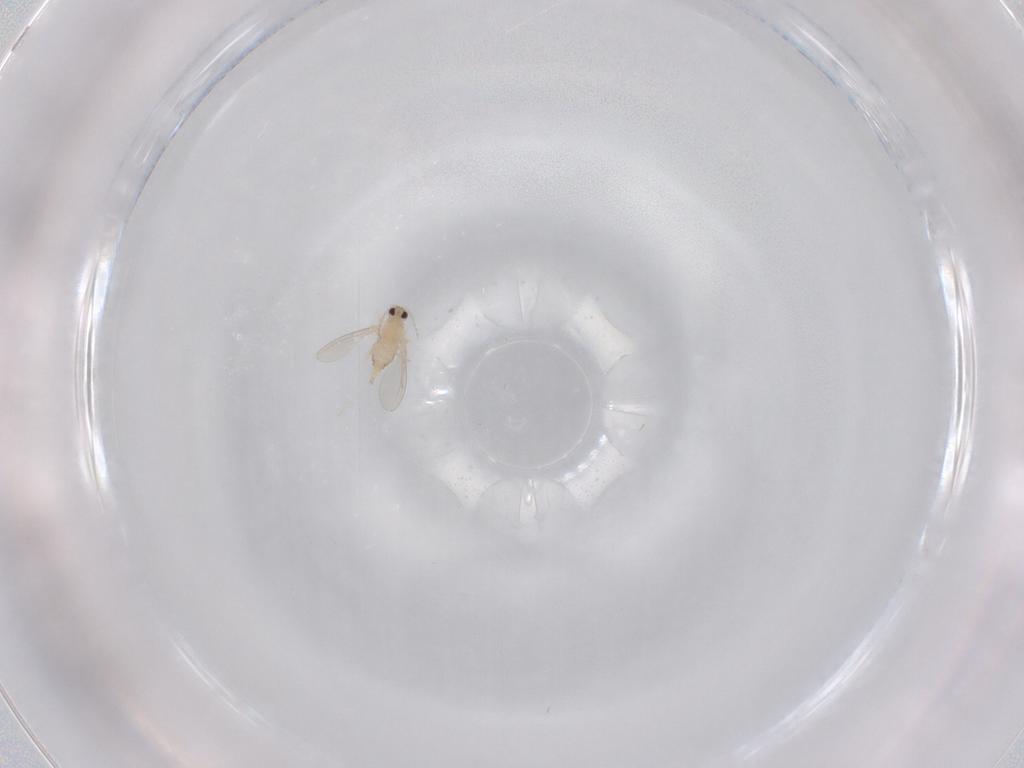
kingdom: Animalia
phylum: Arthropoda
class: Insecta
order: Diptera
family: Cecidomyiidae
